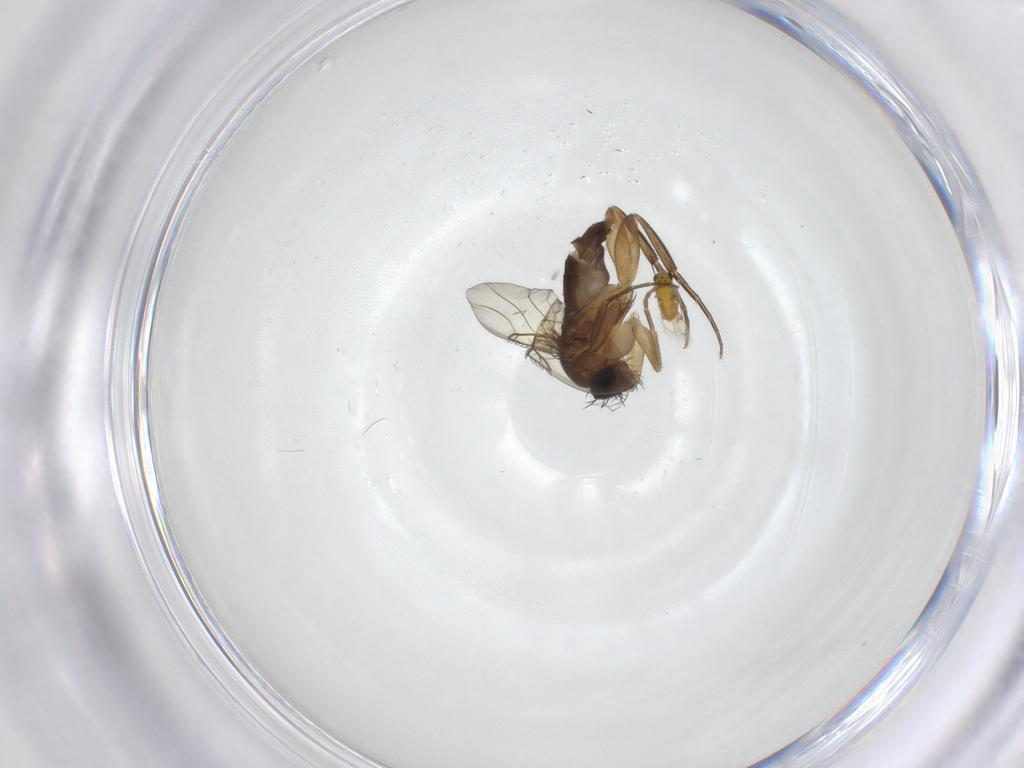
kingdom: Animalia
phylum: Arthropoda
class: Insecta
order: Diptera
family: Phoridae
